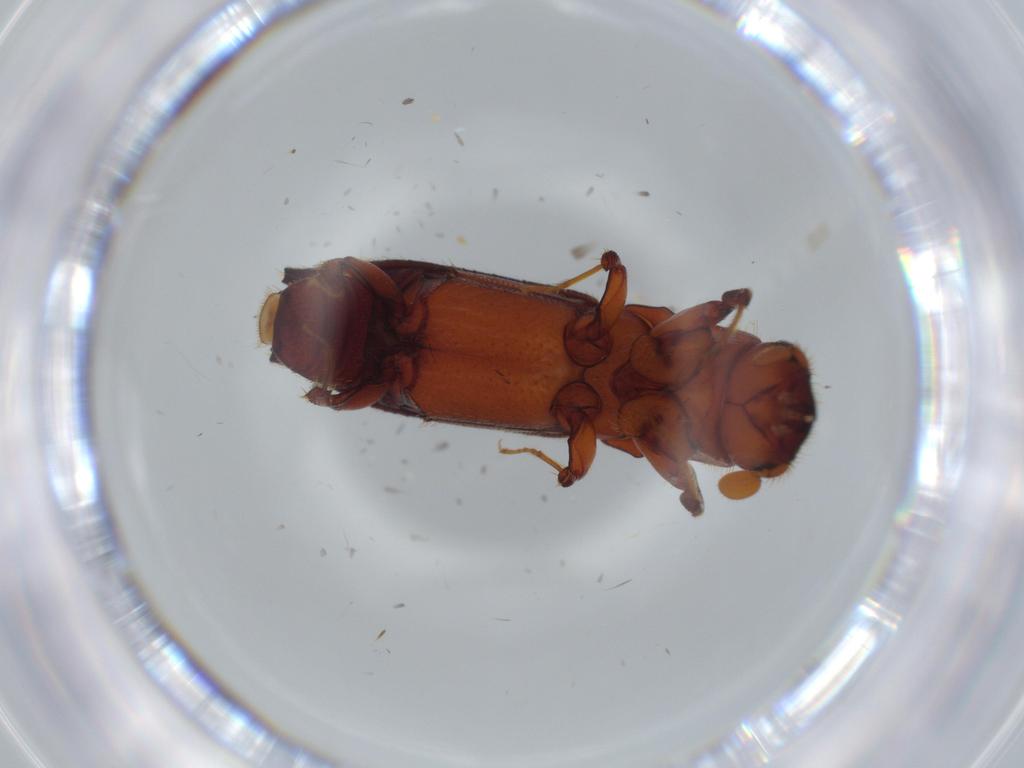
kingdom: Animalia
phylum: Arthropoda
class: Insecta
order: Coleoptera
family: Curculionidae
